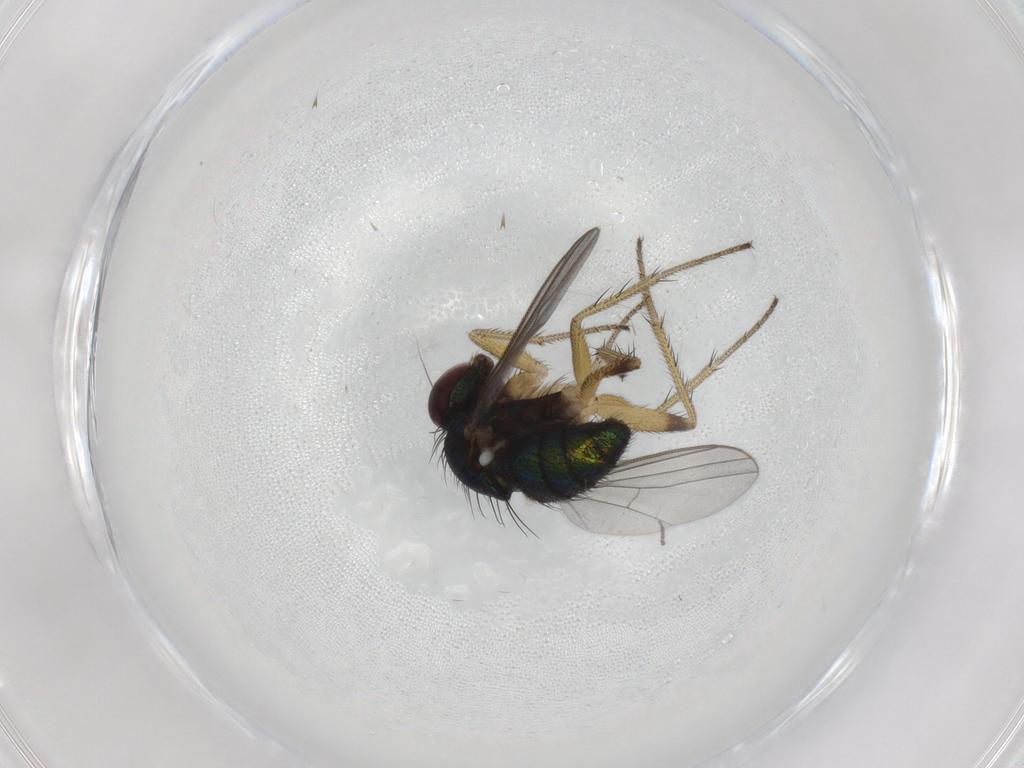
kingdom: Animalia
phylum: Arthropoda
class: Insecta
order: Diptera
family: Dolichopodidae
